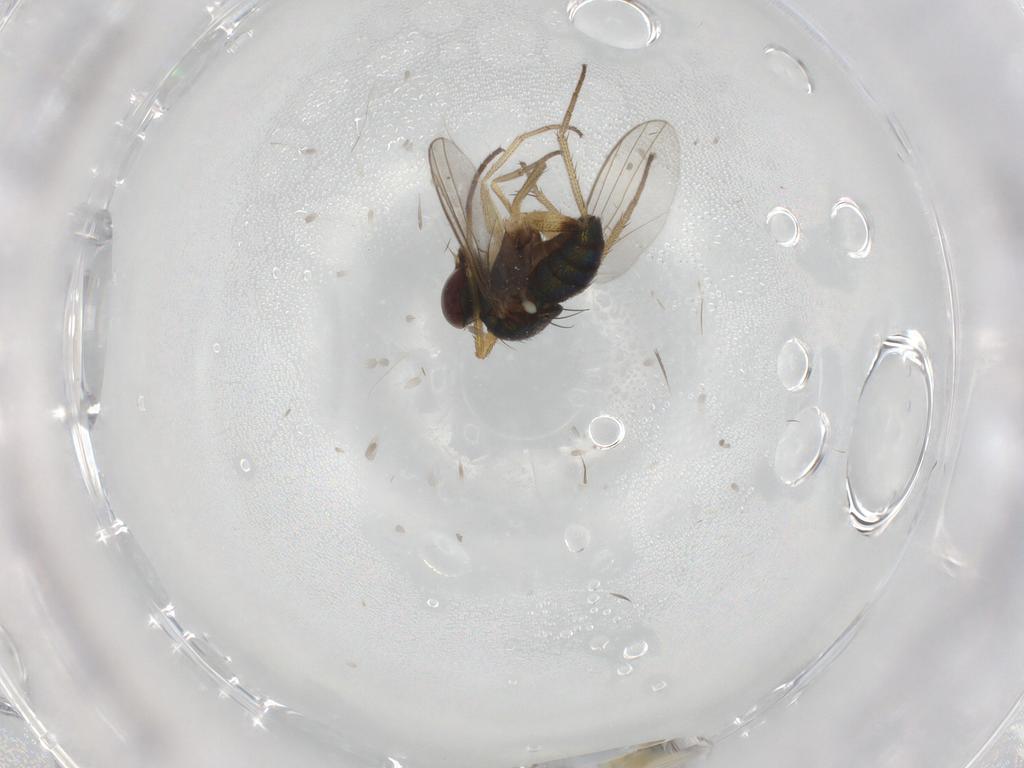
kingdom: Animalia
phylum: Arthropoda
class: Insecta
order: Diptera
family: Dolichopodidae
